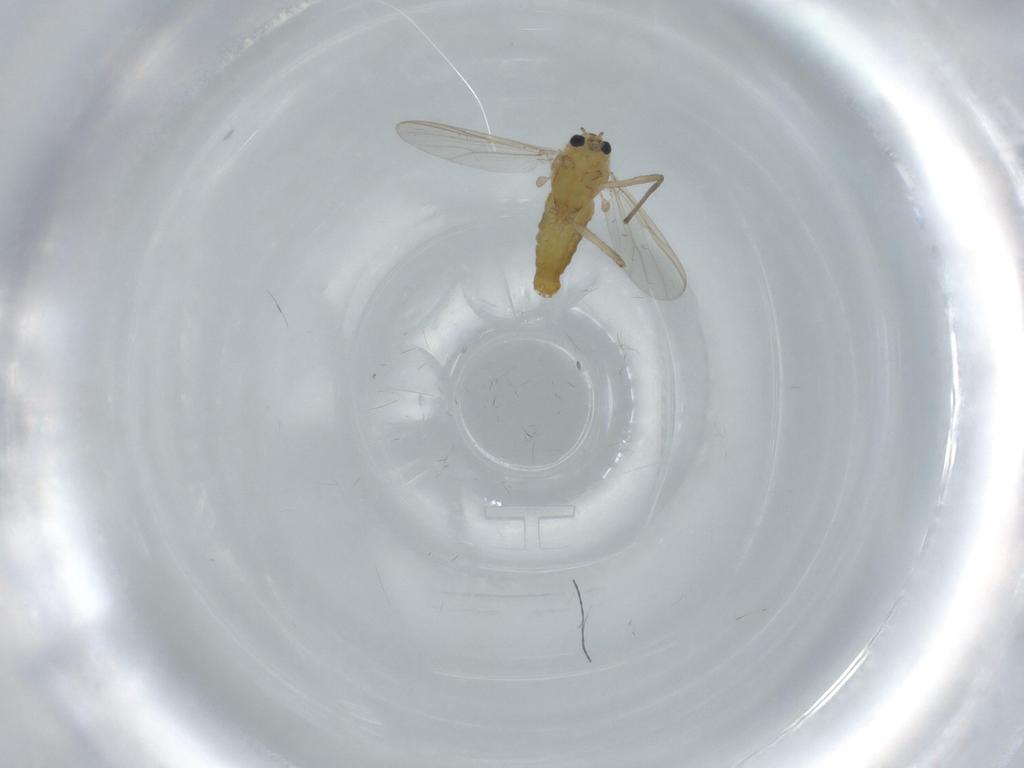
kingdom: Animalia
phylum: Arthropoda
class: Insecta
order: Diptera
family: Chironomidae
